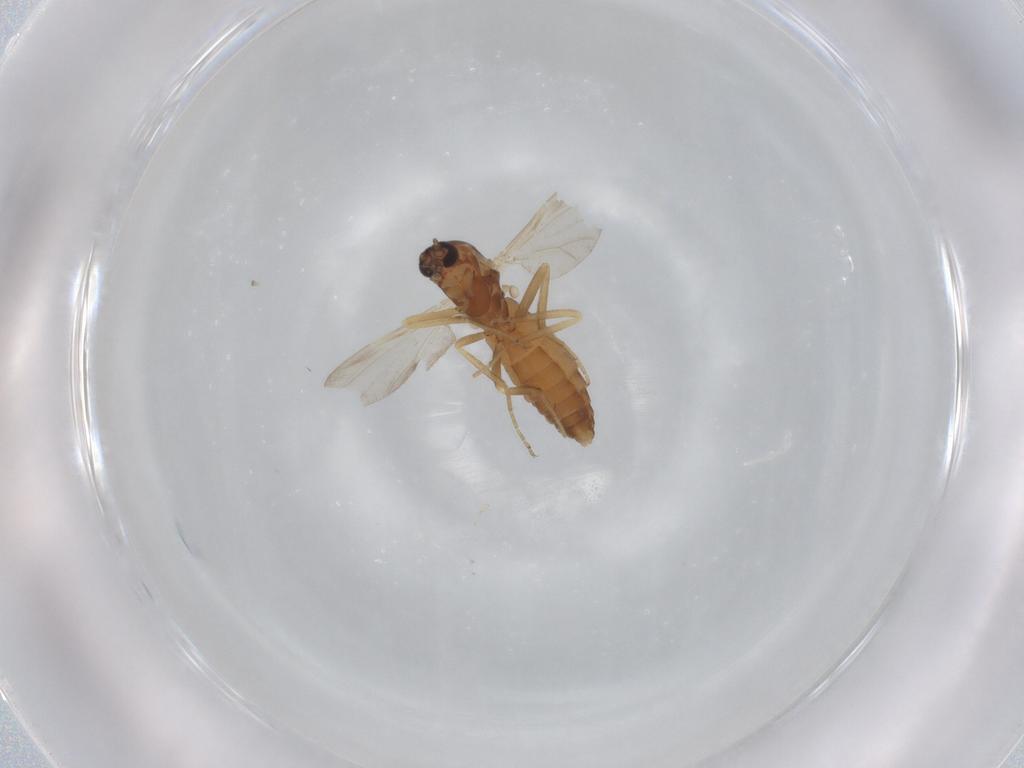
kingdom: Animalia
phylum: Arthropoda
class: Insecta
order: Diptera
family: Ceratopogonidae
